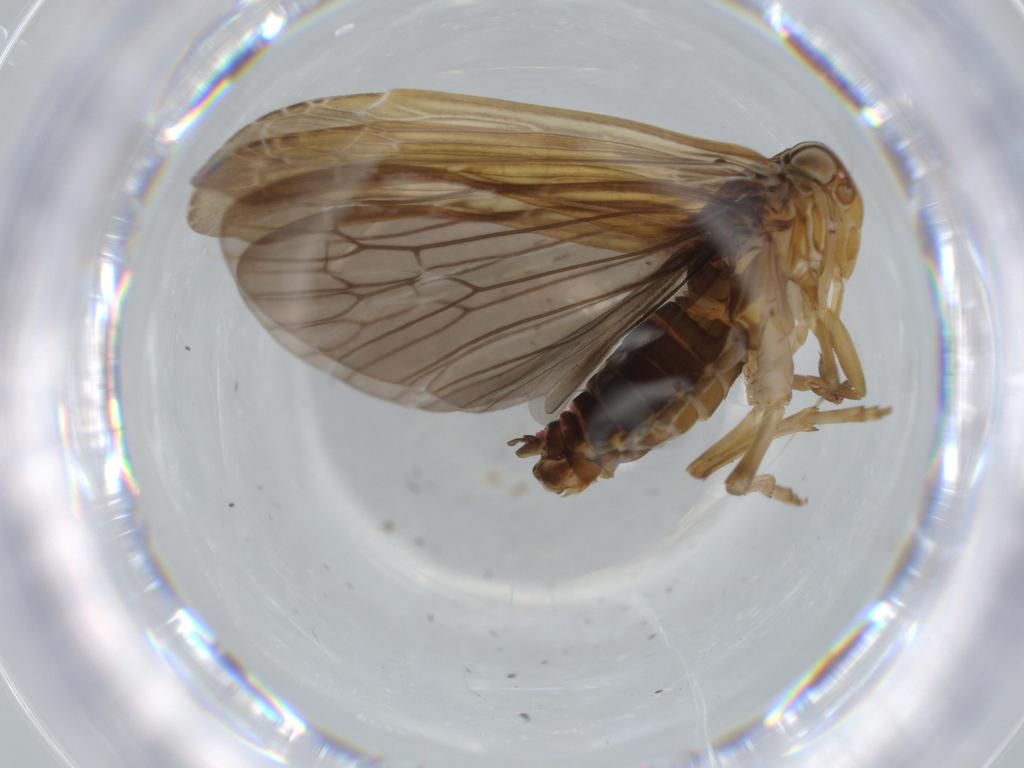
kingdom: Animalia
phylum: Arthropoda
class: Insecta
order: Hemiptera
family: Achilidae
